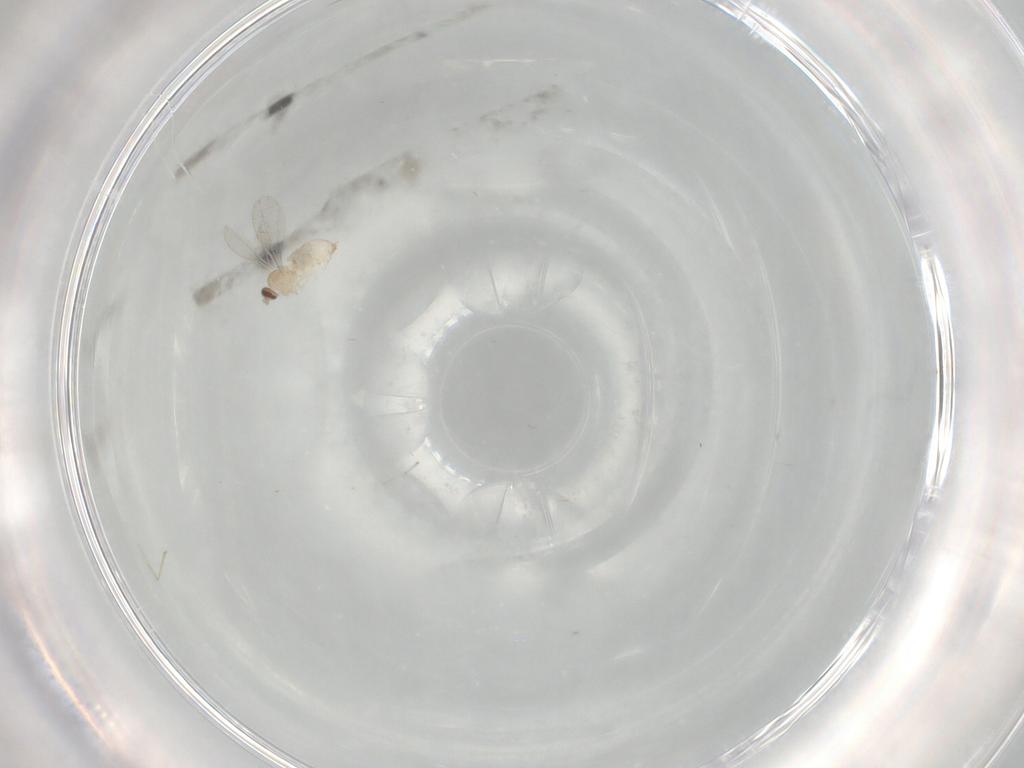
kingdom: Animalia
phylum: Arthropoda
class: Insecta
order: Diptera
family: Cecidomyiidae
